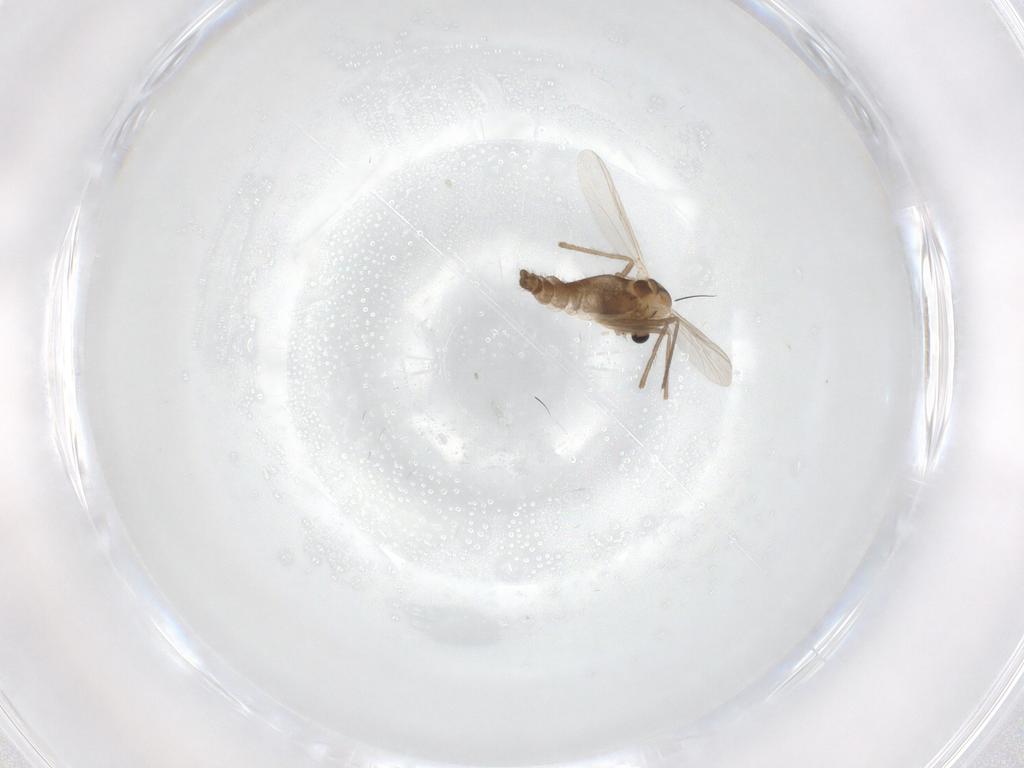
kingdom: Animalia
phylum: Arthropoda
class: Insecta
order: Diptera
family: Chironomidae
